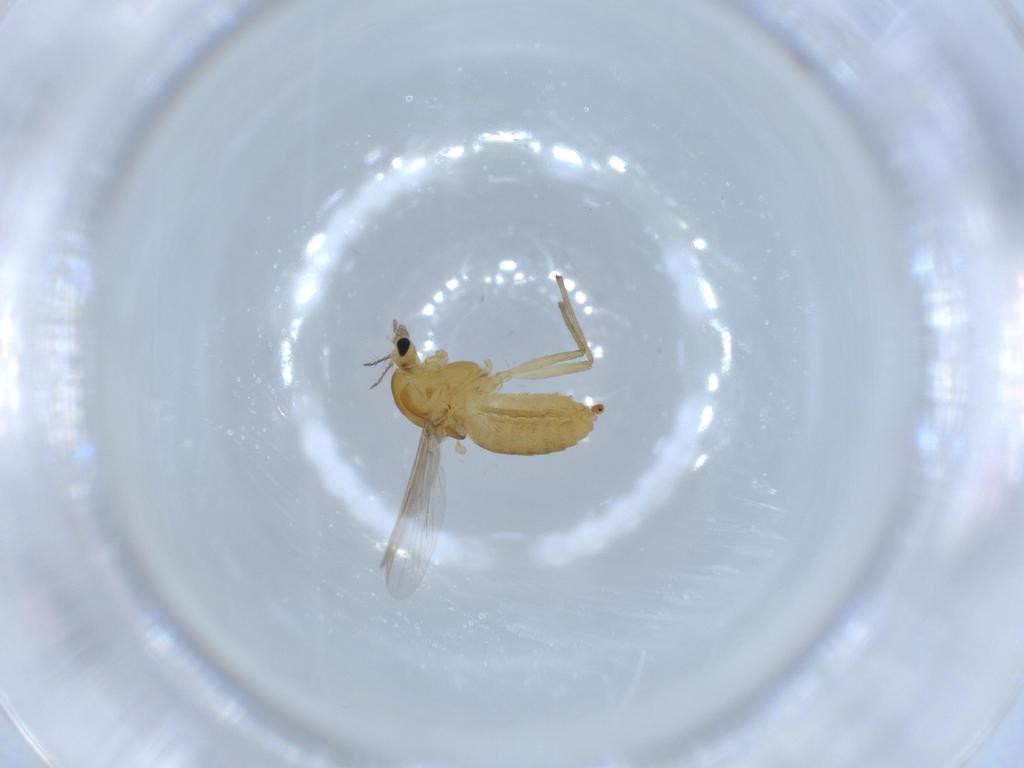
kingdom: Animalia
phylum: Arthropoda
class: Insecta
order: Diptera
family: Chironomidae
